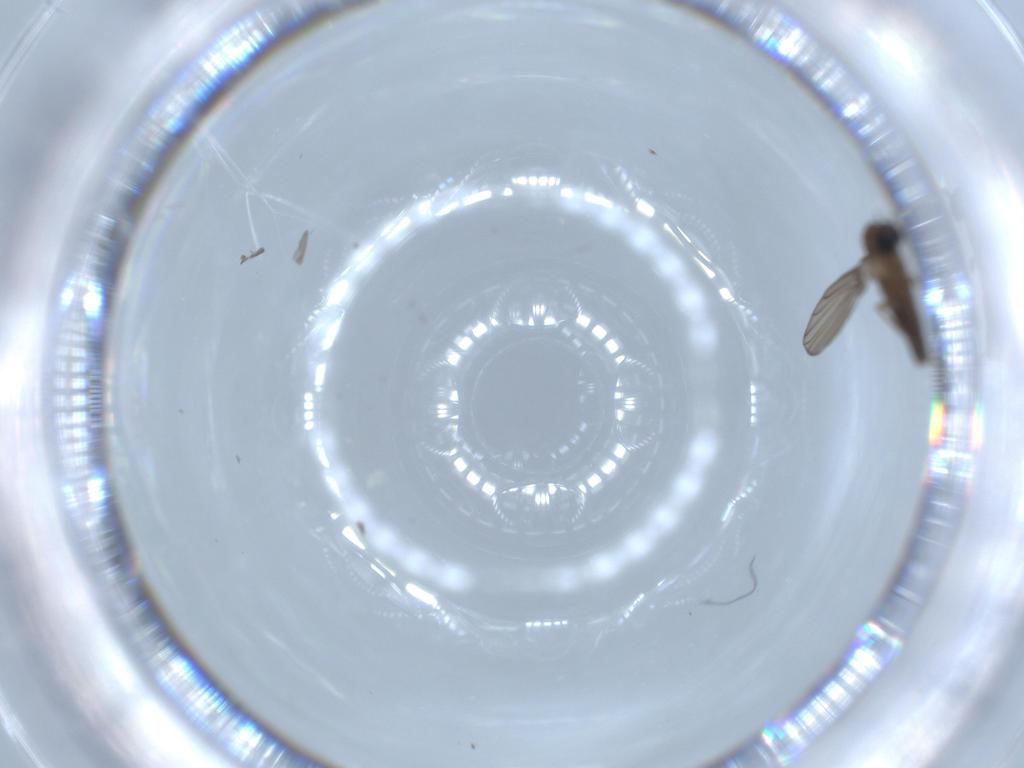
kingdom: Animalia
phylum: Arthropoda
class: Insecta
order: Diptera
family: Psychodidae
